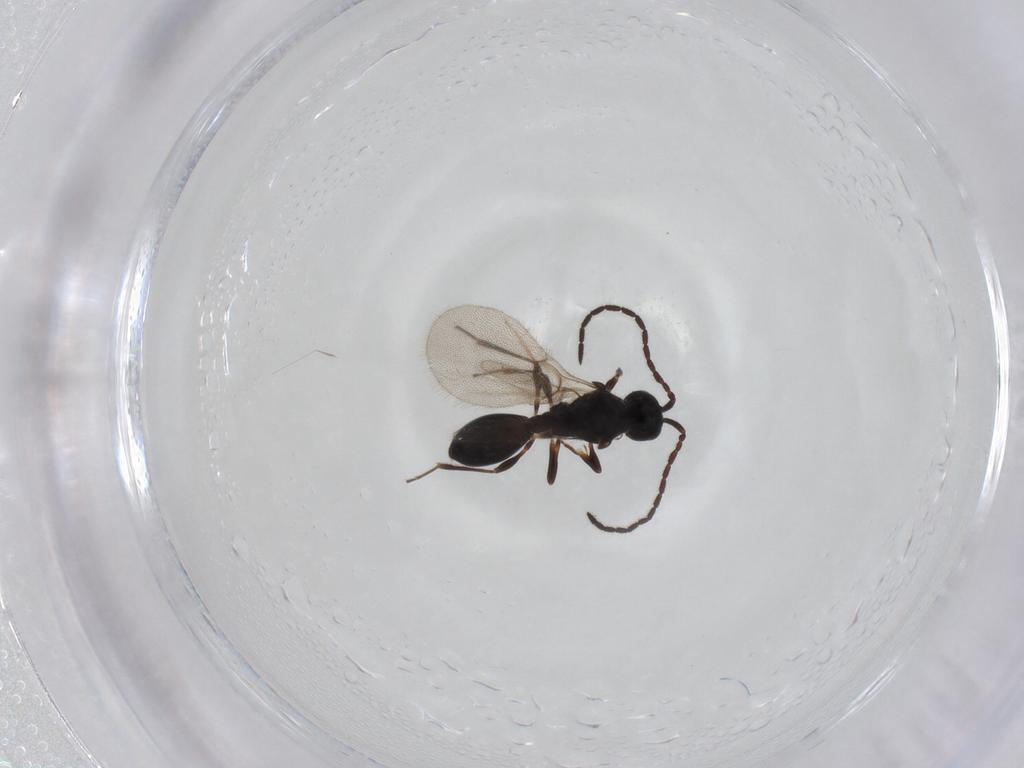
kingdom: Animalia
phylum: Arthropoda
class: Insecta
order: Hymenoptera
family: Diapriidae
